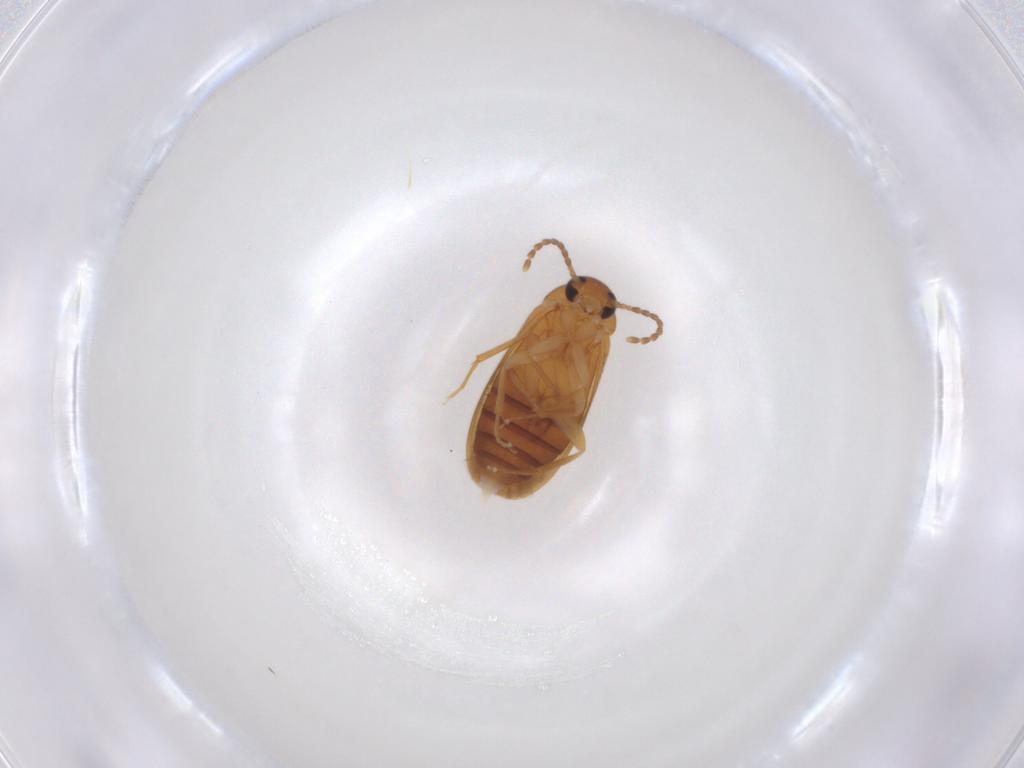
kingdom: Animalia
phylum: Arthropoda
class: Insecta
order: Coleoptera
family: Scraptiidae
